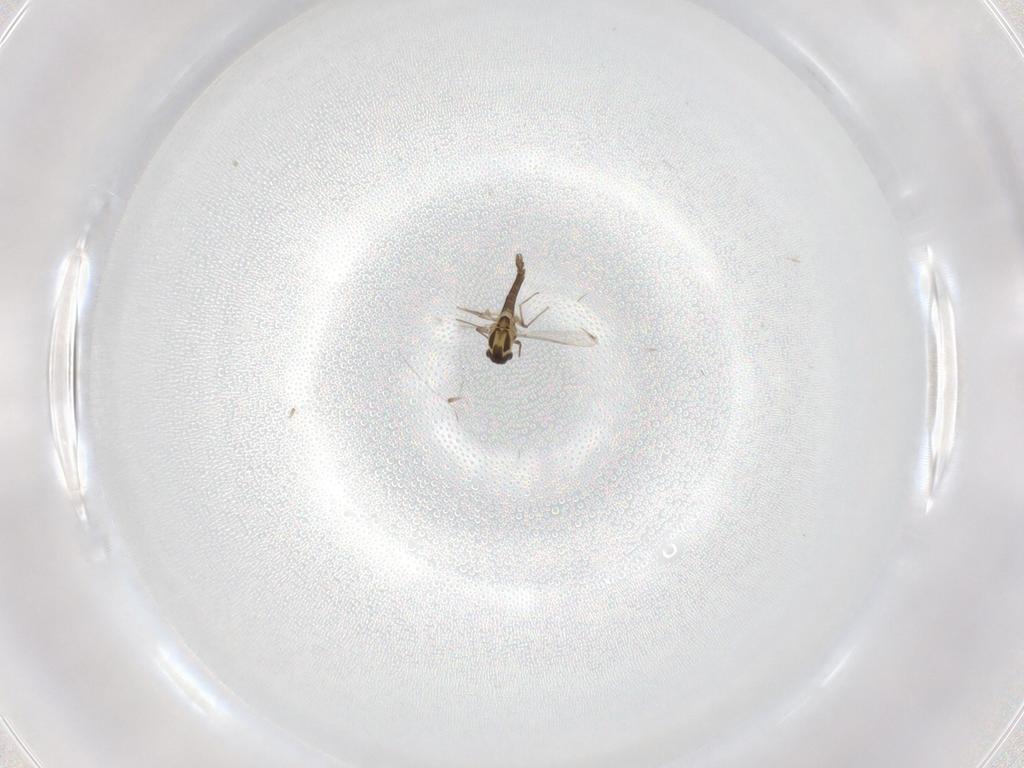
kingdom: Animalia
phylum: Arthropoda
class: Insecta
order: Diptera
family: Chironomidae
